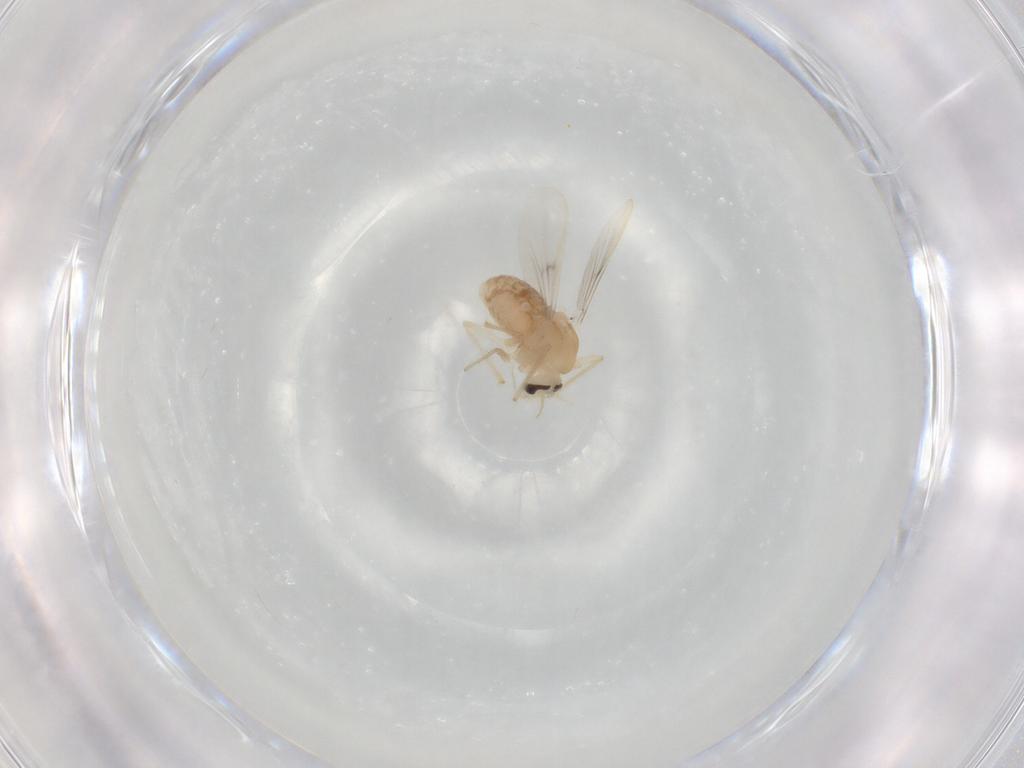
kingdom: Animalia
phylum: Arthropoda
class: Insecta
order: Diptera
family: Chironomidae
